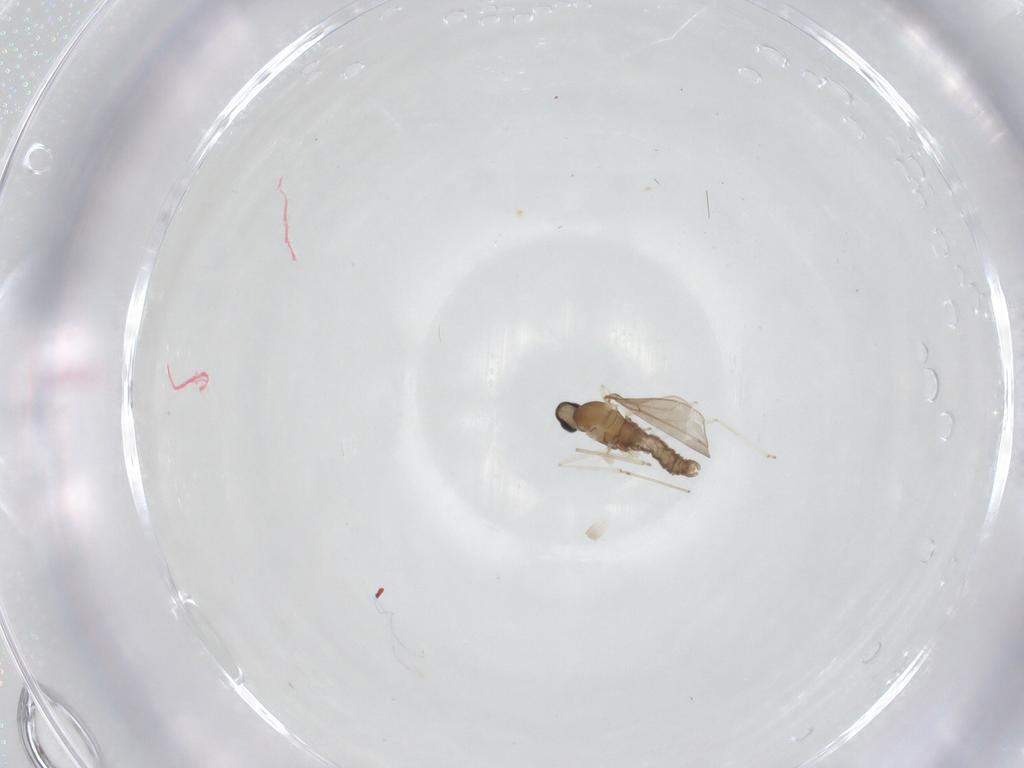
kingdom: Animalia
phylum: Arthropoda
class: Insecta
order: Diptera
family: Cecidomyiidae
